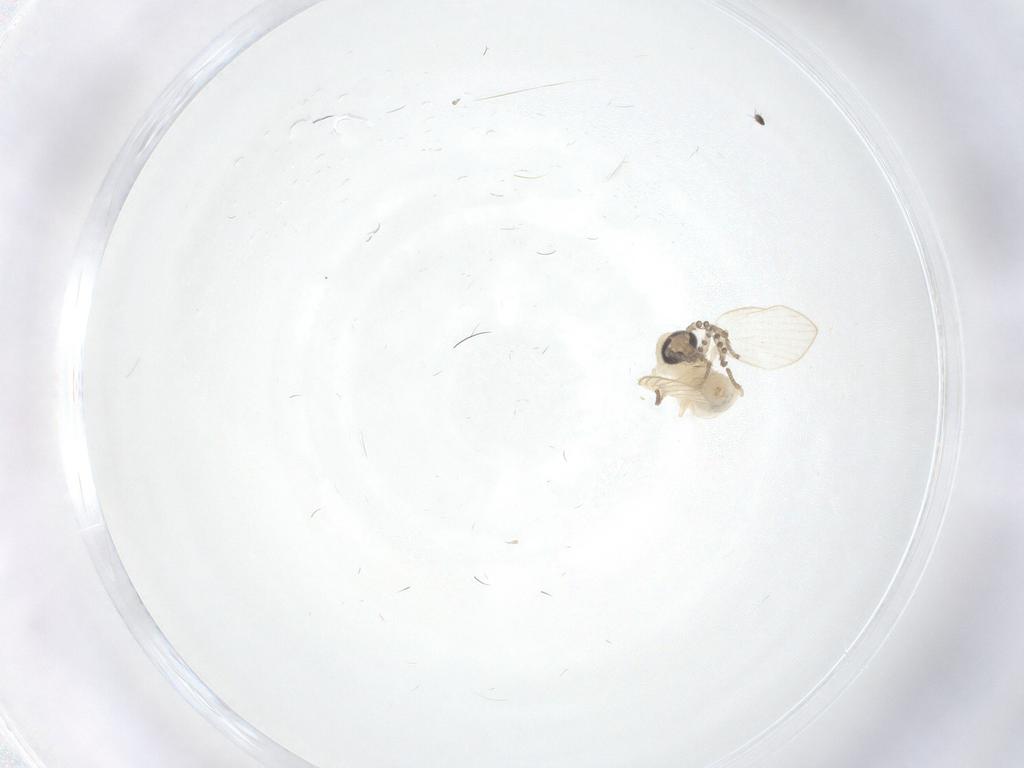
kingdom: Animalia
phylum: Arthropoda
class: Insecta
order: Diptera
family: Psychodidae
